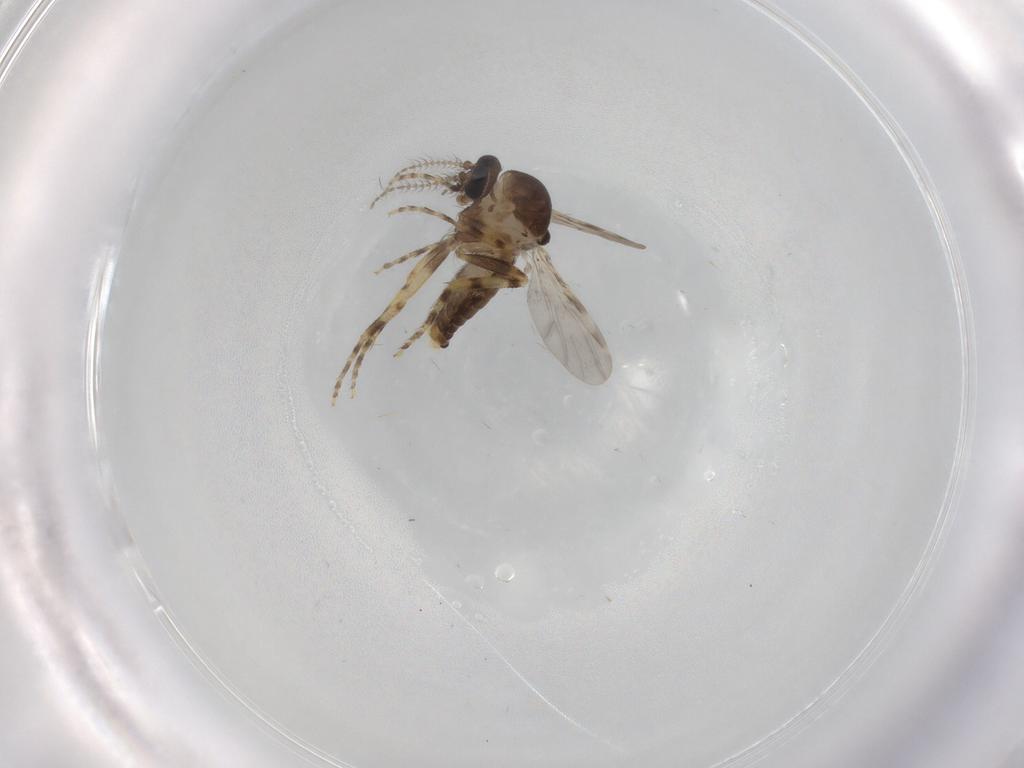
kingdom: Animalia
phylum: Arthropoda
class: Insecta
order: Diptera
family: Ceratopogonidae
